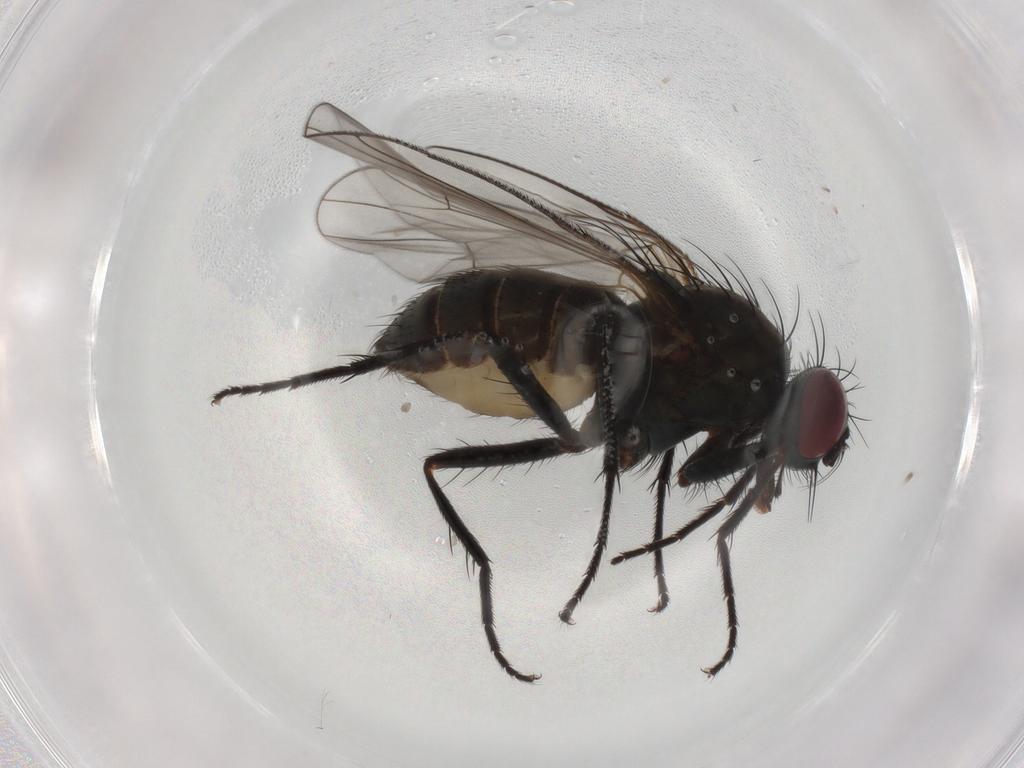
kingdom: Animalia
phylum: Arthropoda
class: Insecta
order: Diptera
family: Muscidae
